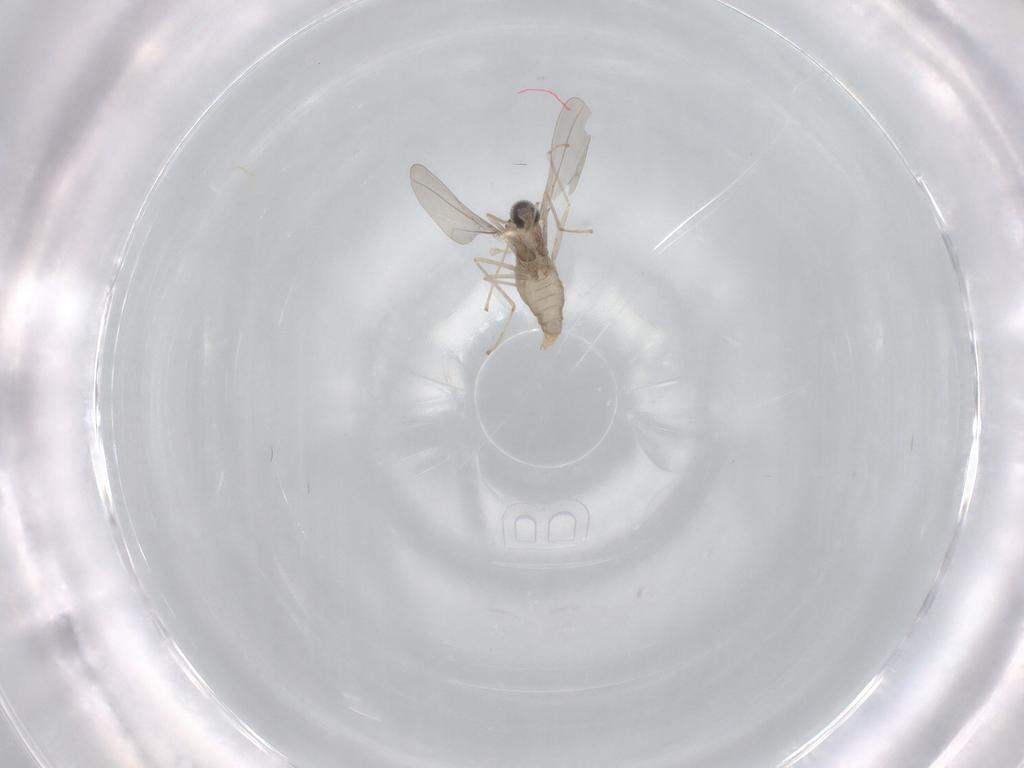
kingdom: Animalia
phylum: Arthropoda
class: Insecta
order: Diptera
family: Cecidomyiidae
